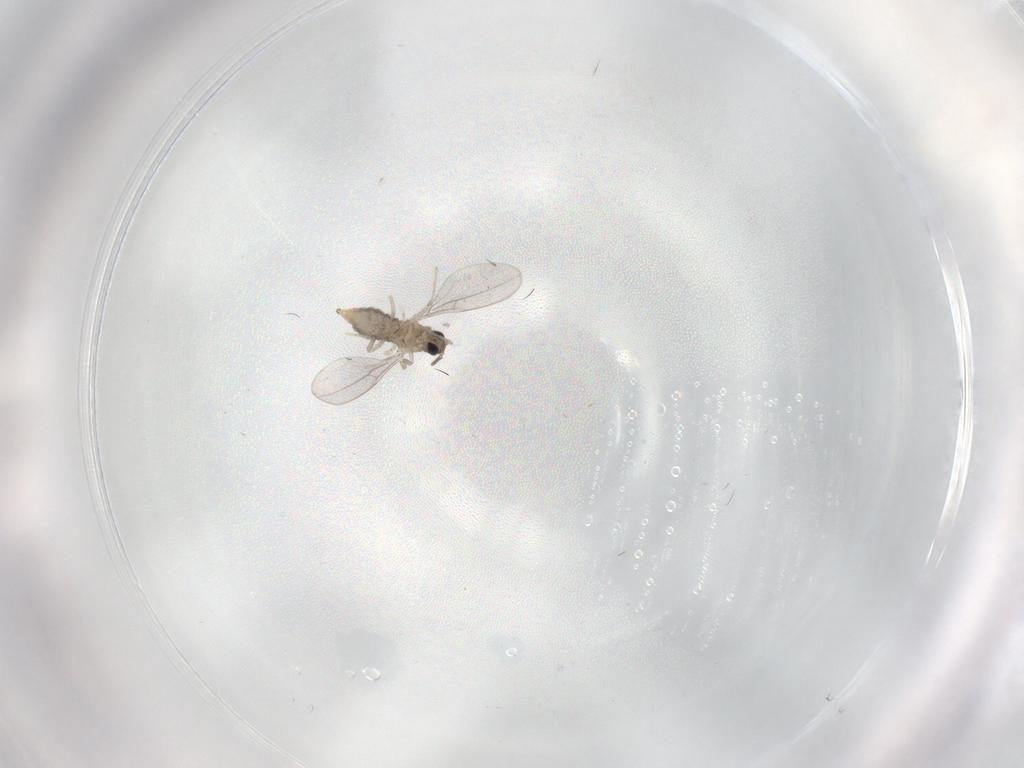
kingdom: Animalia
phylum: Arthropoda
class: Insecta
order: Diptera
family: Cecidomyiidae
